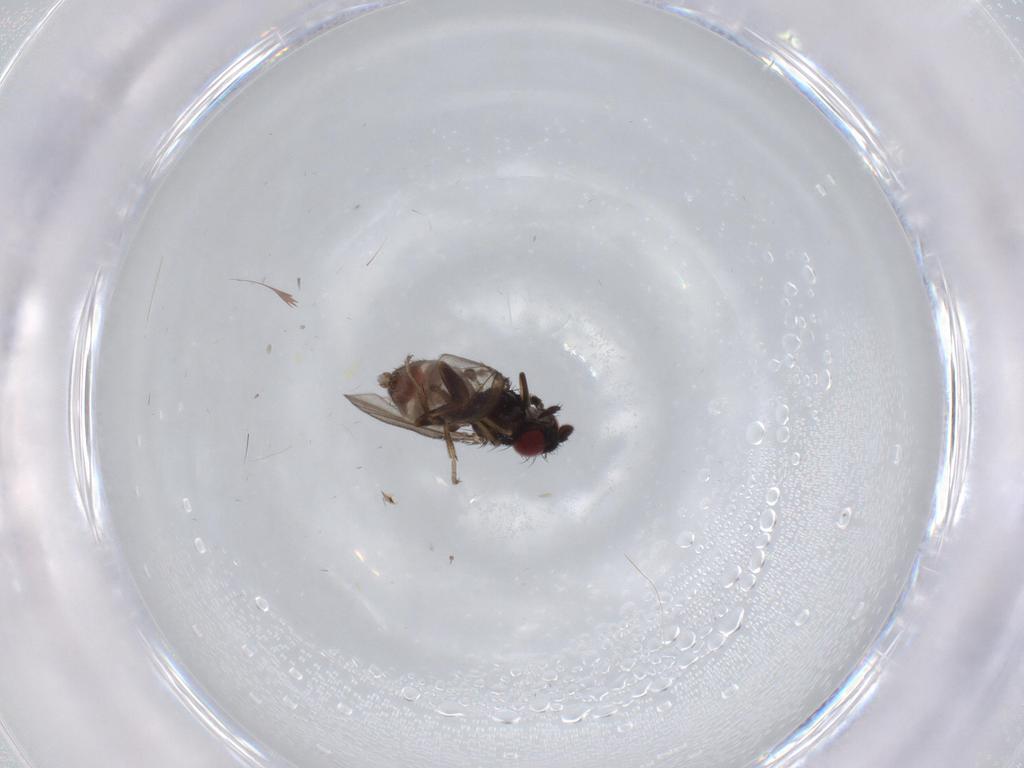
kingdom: Animalia
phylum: Arthropoda
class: Insecta
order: Diptera
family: Milichiidae
